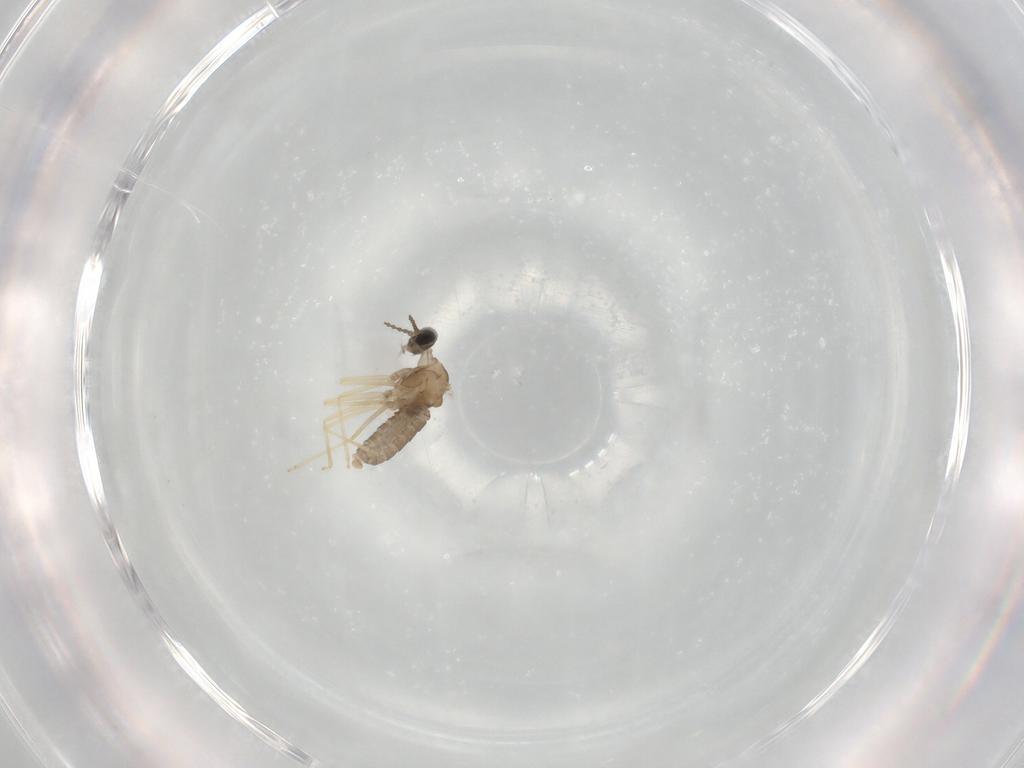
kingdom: Animalia
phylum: Arthropoda
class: Insecta
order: Diptera
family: Cecidomyiidae
